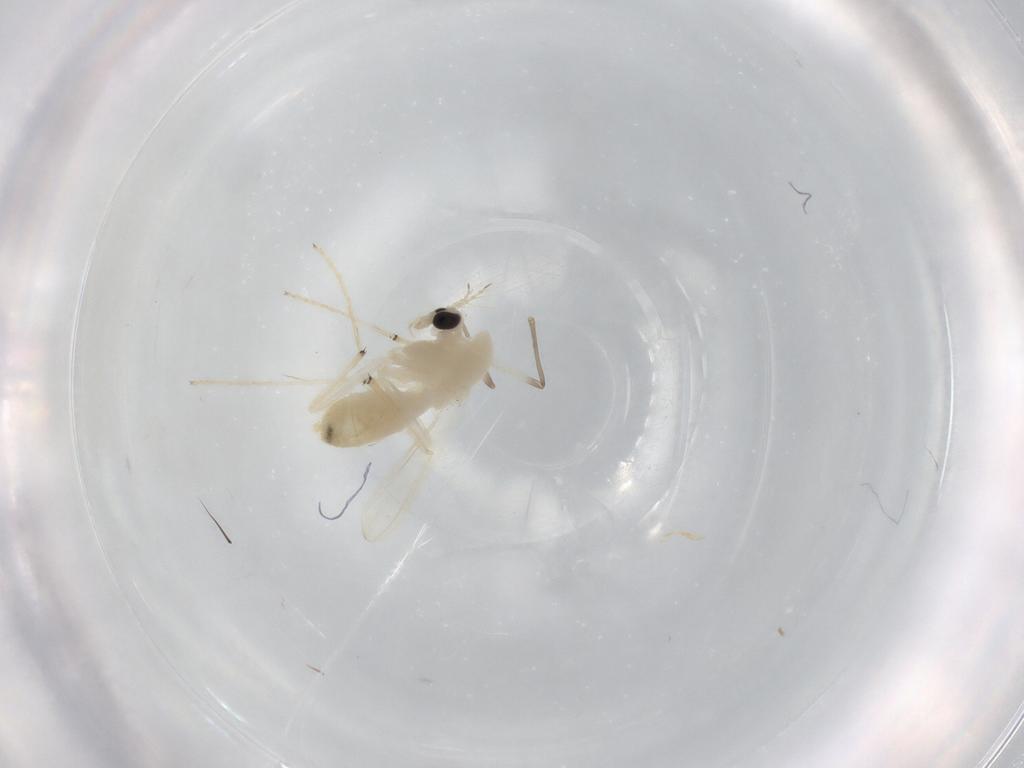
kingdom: Animalia
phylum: Arthropoda
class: Insecta
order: Diptera
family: Chironomidae
